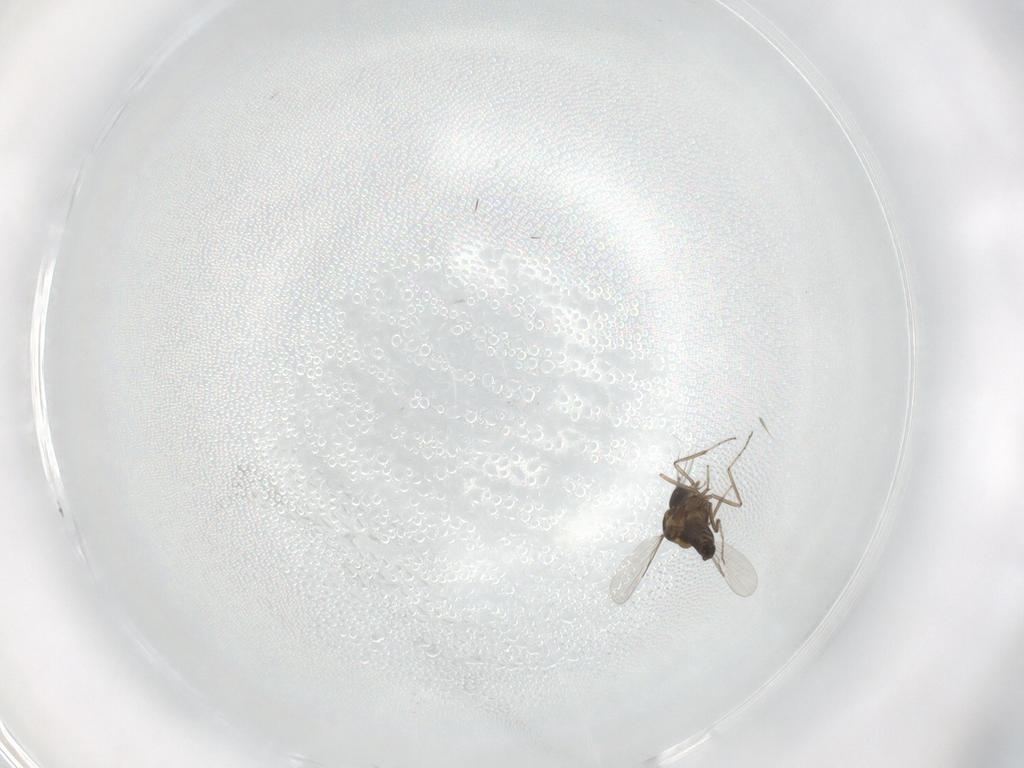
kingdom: Animalia
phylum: Arthropoda
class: Insecta
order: Diptera
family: Ceratopogonidae
